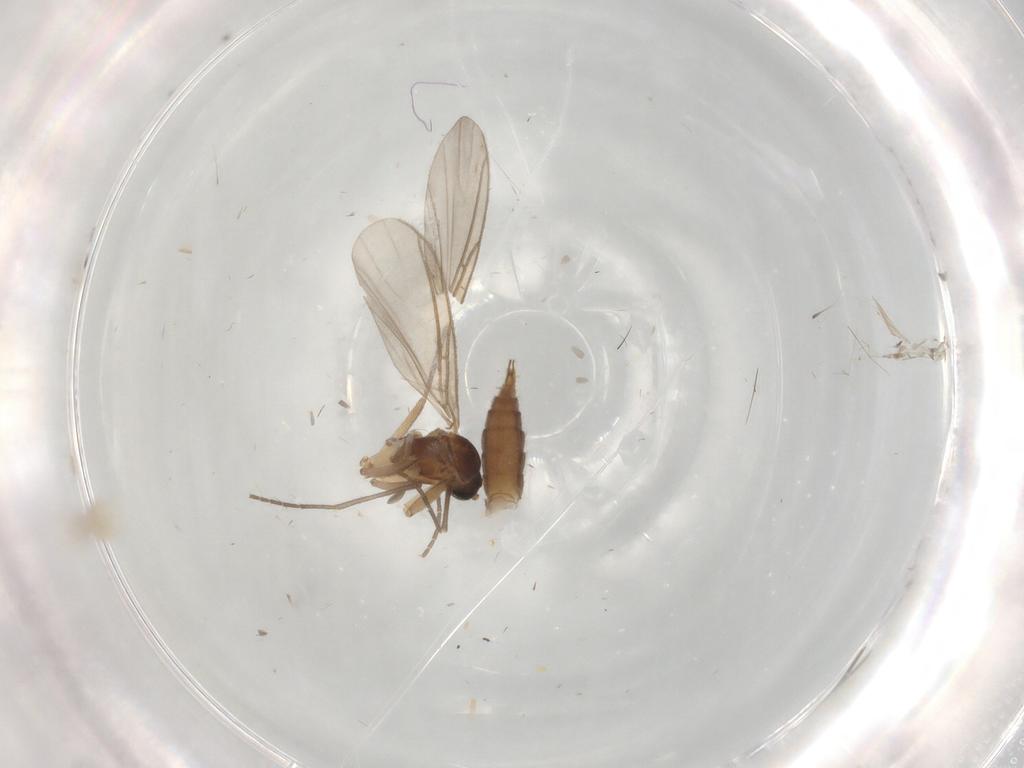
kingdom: Animalia
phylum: Arthropoda
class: Insecta
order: Diptera
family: Sciaridae
